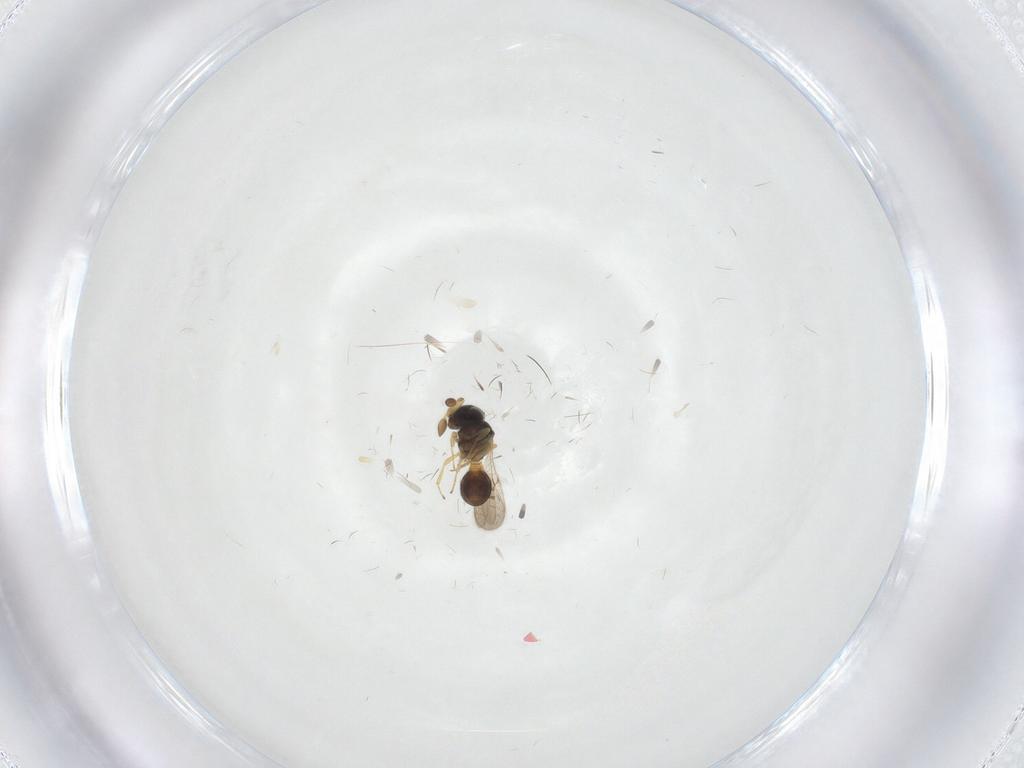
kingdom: Animalia
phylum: Arthropoda
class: Insecta
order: Hymenoptera
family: Scelionidae
